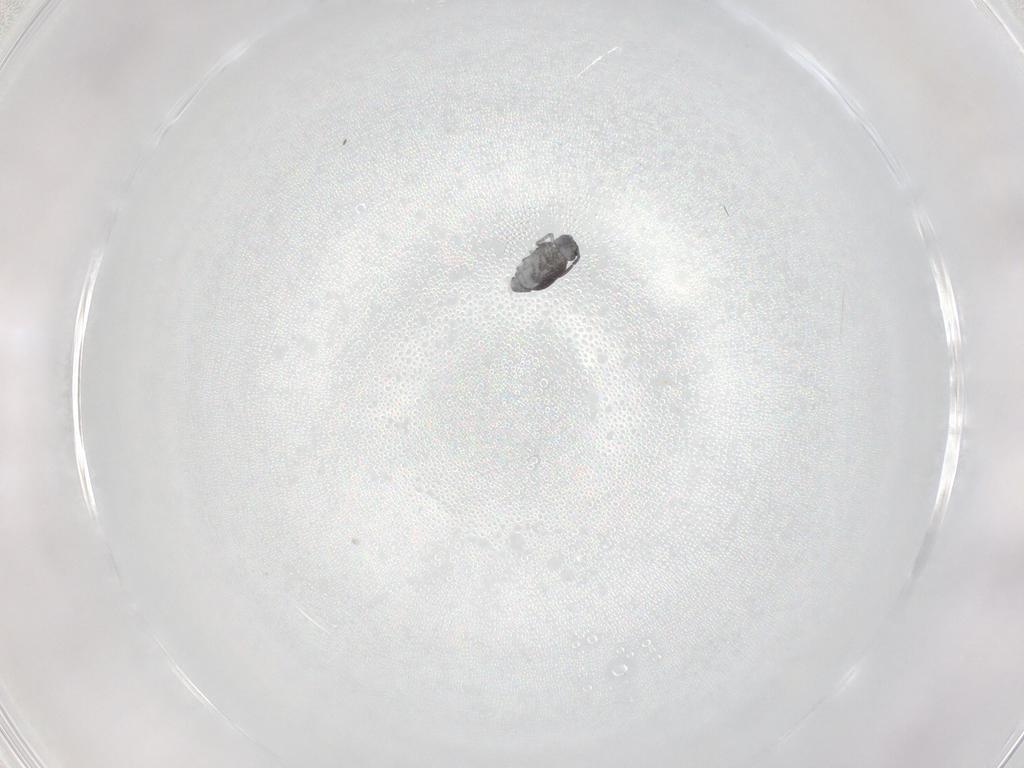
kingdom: Animalia
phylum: Arthropoda
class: Collembola
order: Symphypleona
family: Katiannidae
